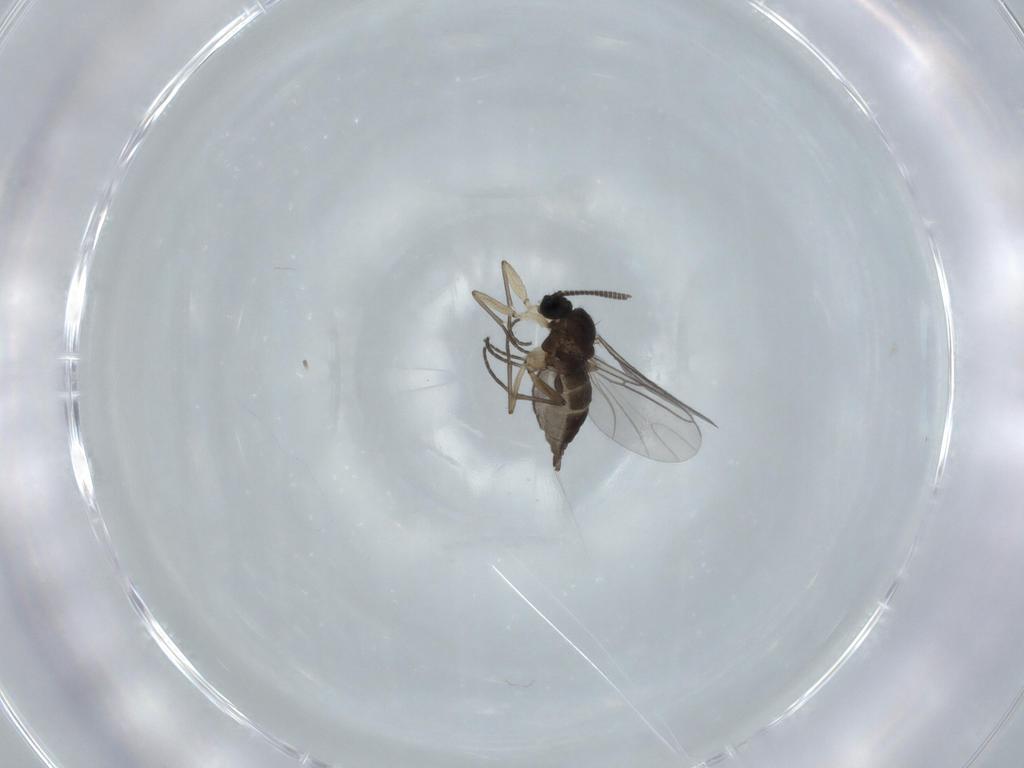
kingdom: Animalia
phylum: Arthropoda
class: Insecta
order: Diptera
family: Sciaridae
